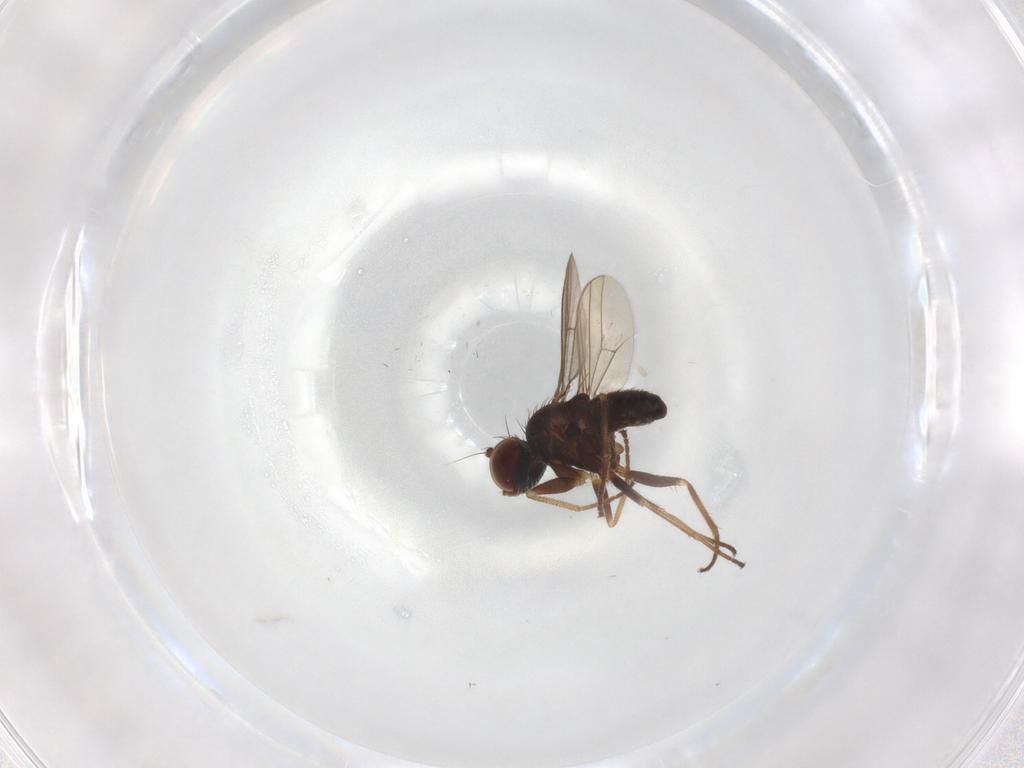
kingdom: Animalia
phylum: Arthropoda
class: Insecta
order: Diptera
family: Dolichopodidae
